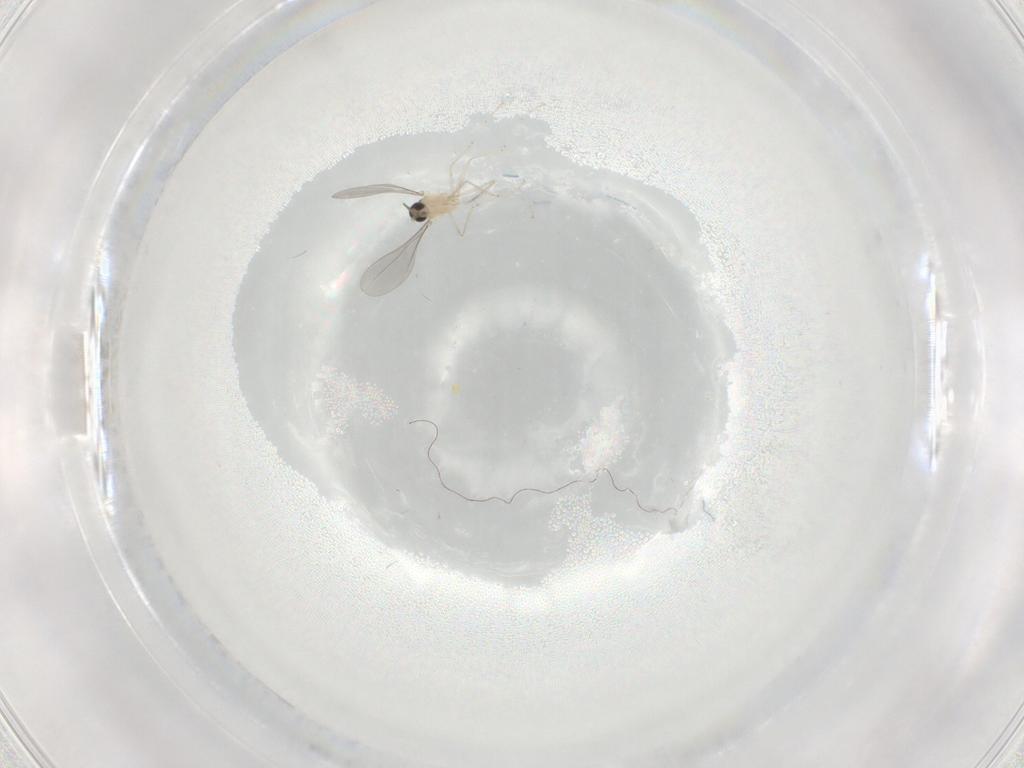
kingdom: Animalia
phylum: Arthropoda
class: Insecta
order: Diptera
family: Cecidomyiidae
